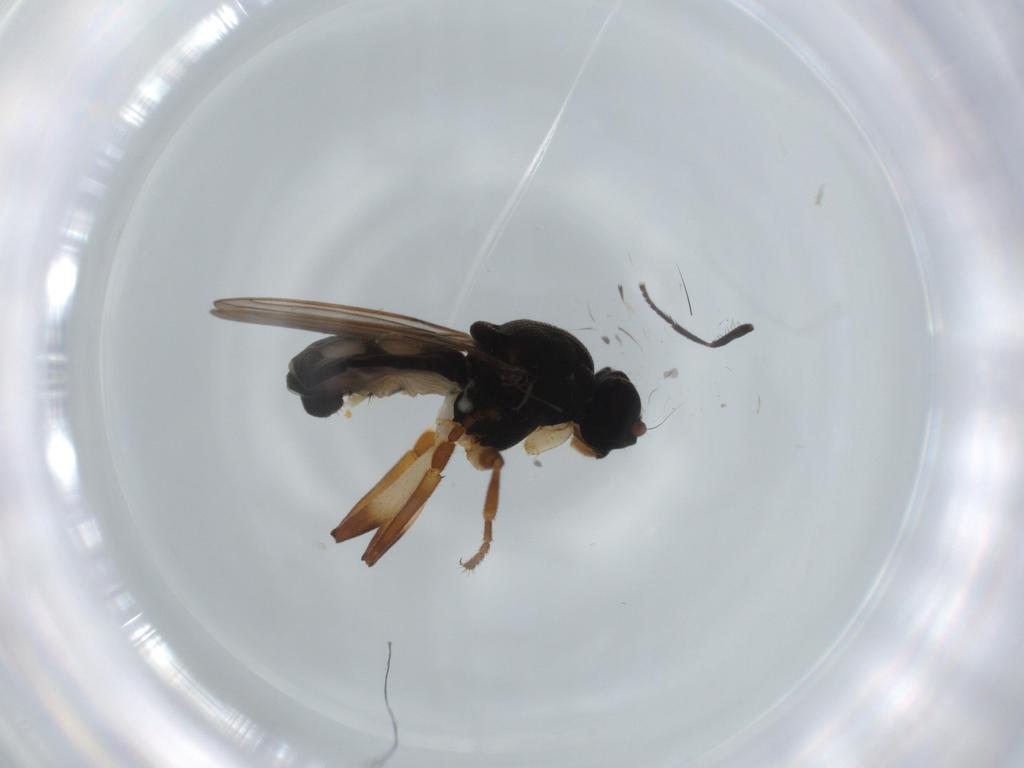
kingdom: Animalia
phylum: Arthropoda
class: Insecta
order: Diptera
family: Sphaeroceridae
